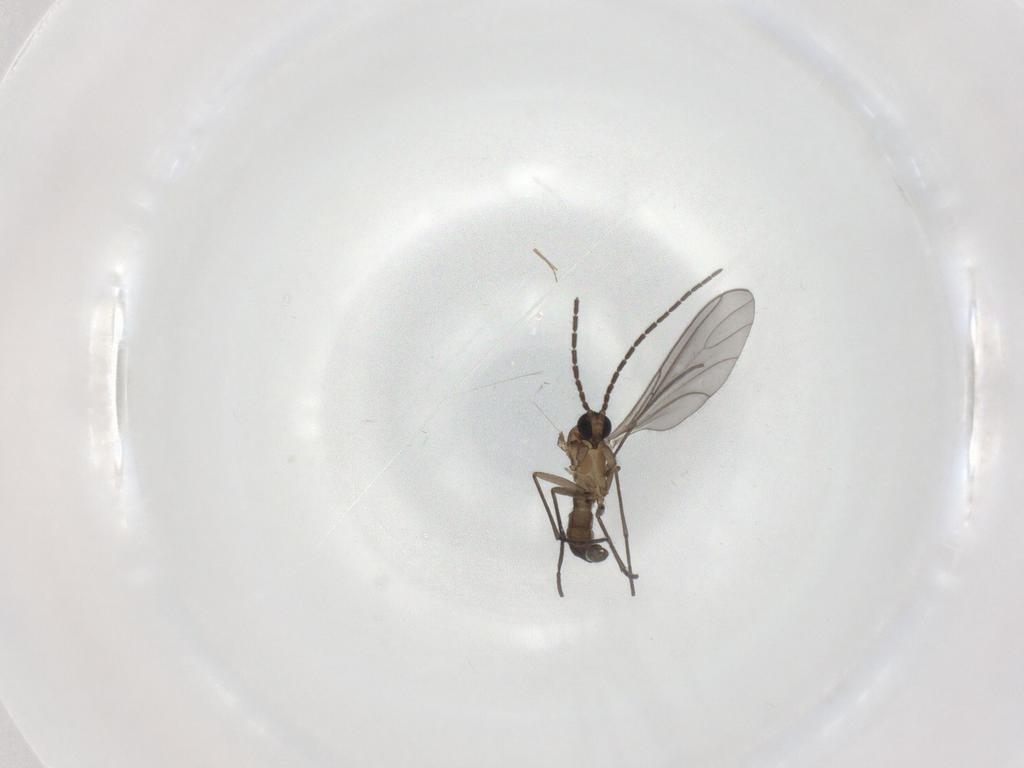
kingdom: Animalia
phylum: Arthropoda
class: Insecta
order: Diptera
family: Sciaridae
